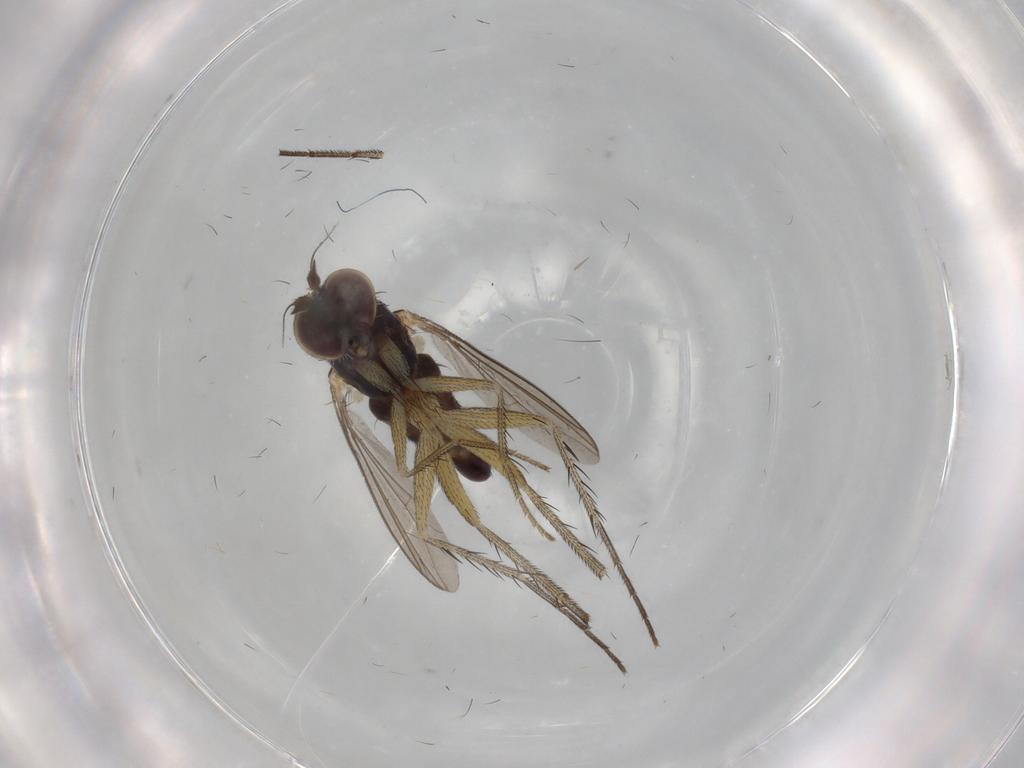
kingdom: Animalia
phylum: Arthropoda
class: Insecta
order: Diptera
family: Dolichopodidae
